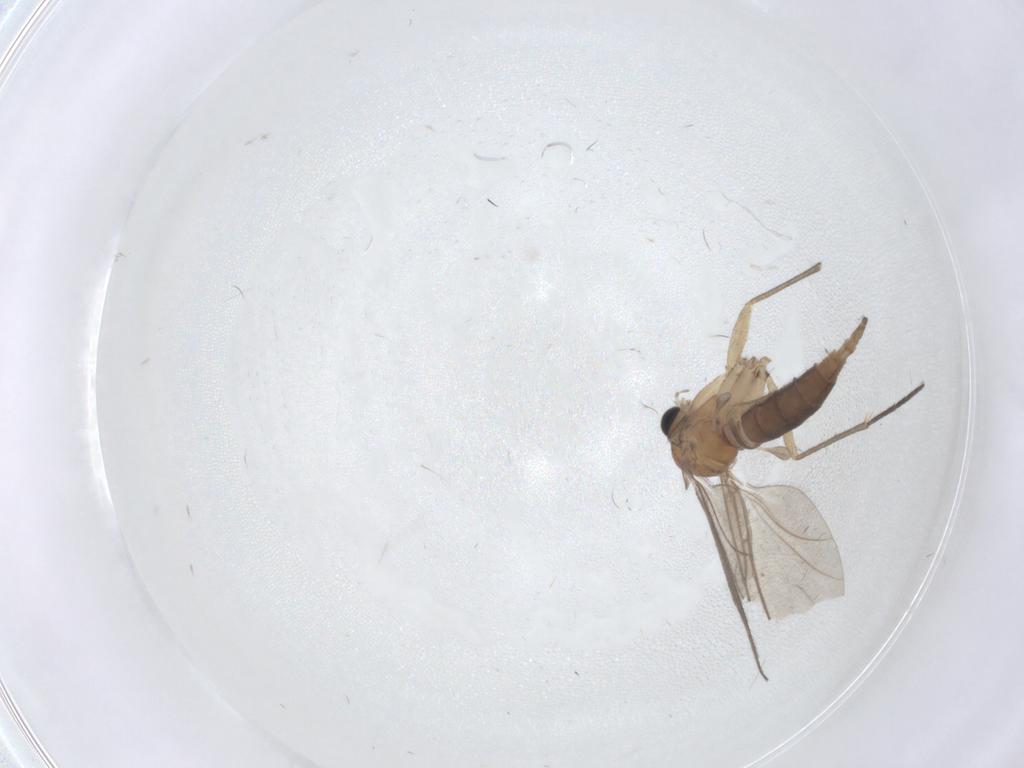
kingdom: Animalia
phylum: Arthropoda
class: Insecta
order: Diptera
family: Sciaridae
